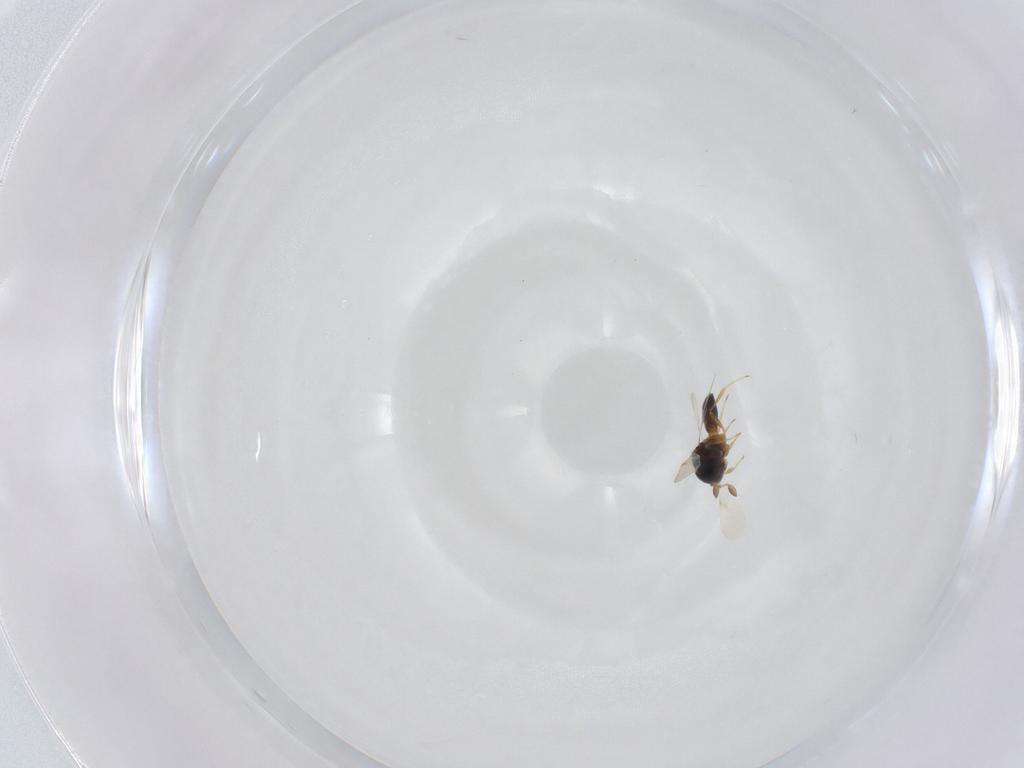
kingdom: Animalia
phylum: Arthropoda
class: Insecta
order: Hymenoptera
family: Scelionidae
